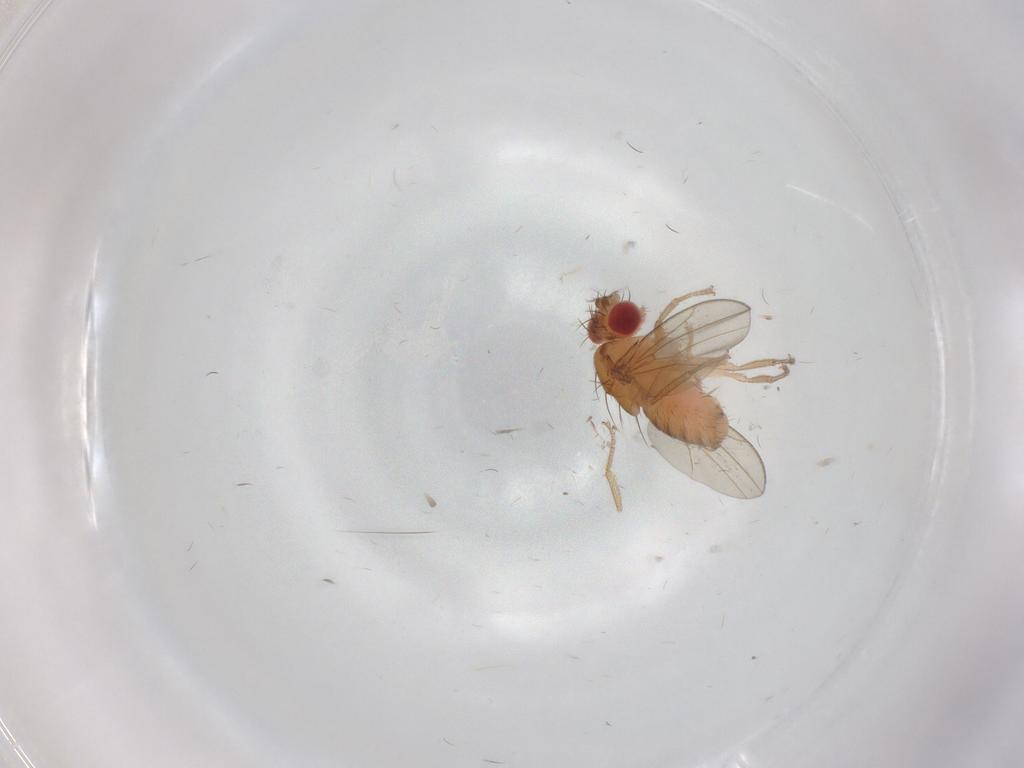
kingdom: Animalia
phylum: Arthropoda
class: Insecta
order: Diptera
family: Drosophilidae
